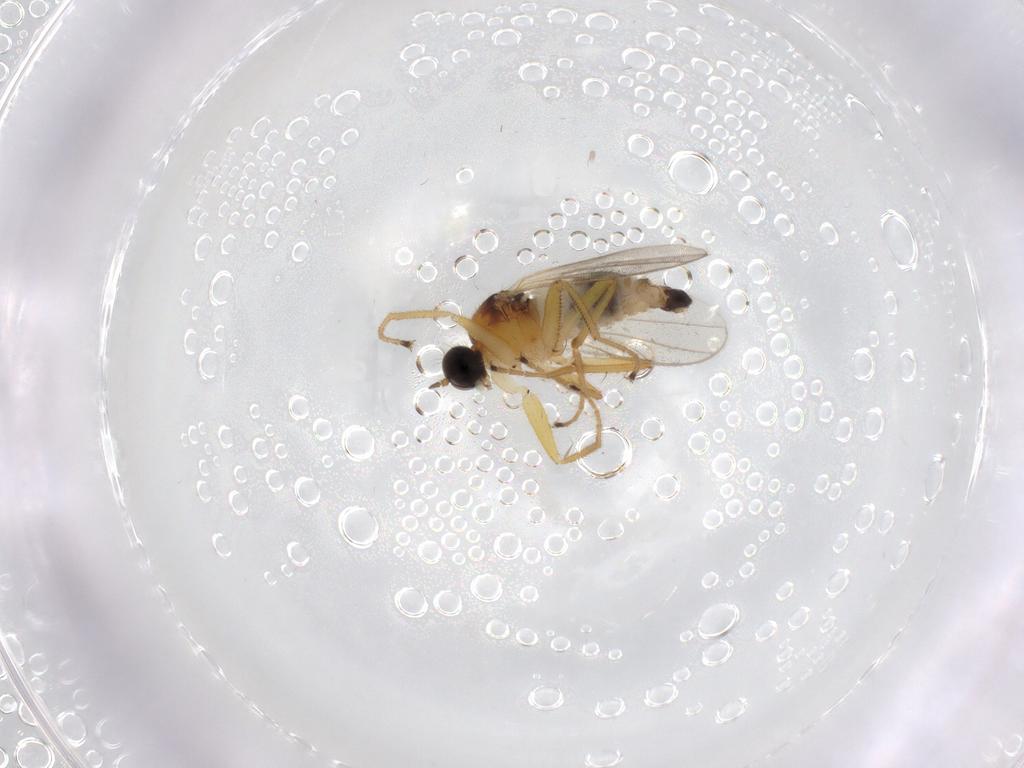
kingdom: Animalia
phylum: Arthropoda
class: Insecta
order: Diptera
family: Hybotidae
